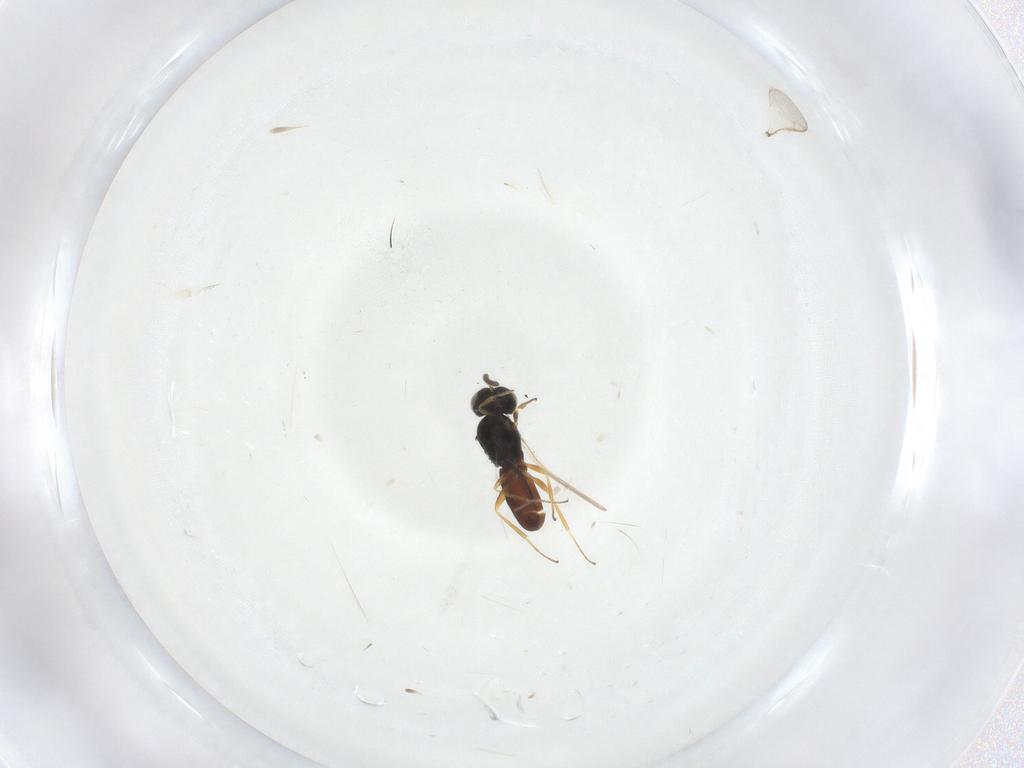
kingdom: Animalia
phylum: Arthropoda
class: Insecta
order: Hymenoptera
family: Scelionidae
